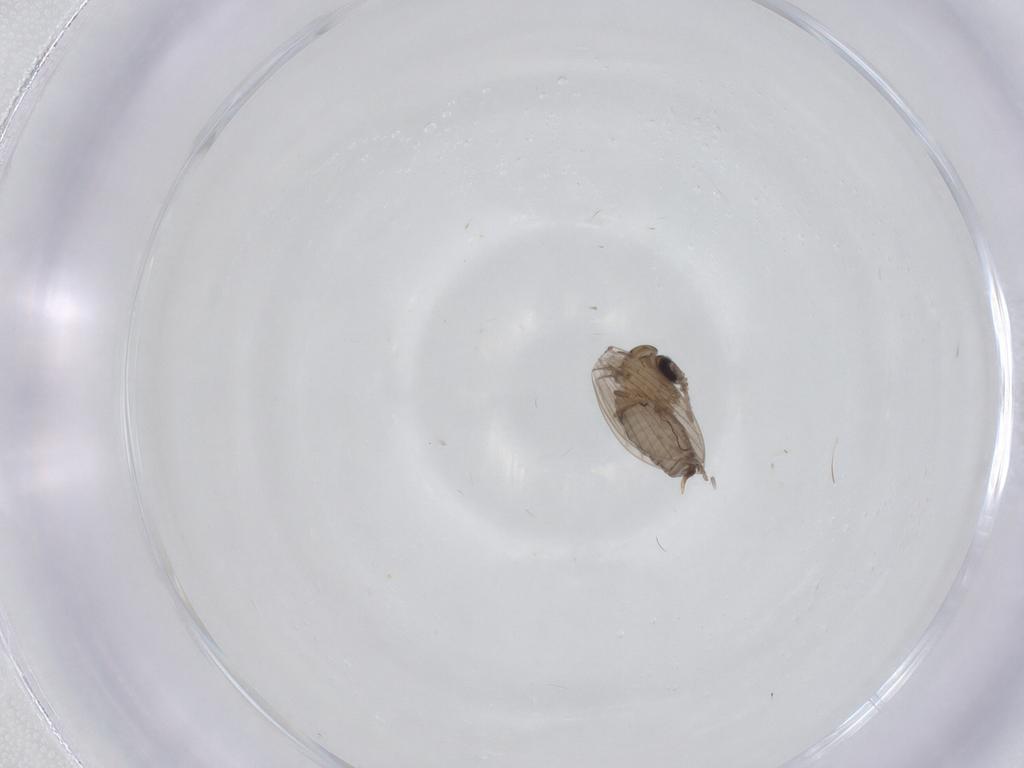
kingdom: Animalia
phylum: Arthropoda
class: Insecta
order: Diptera
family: Psychodidae
